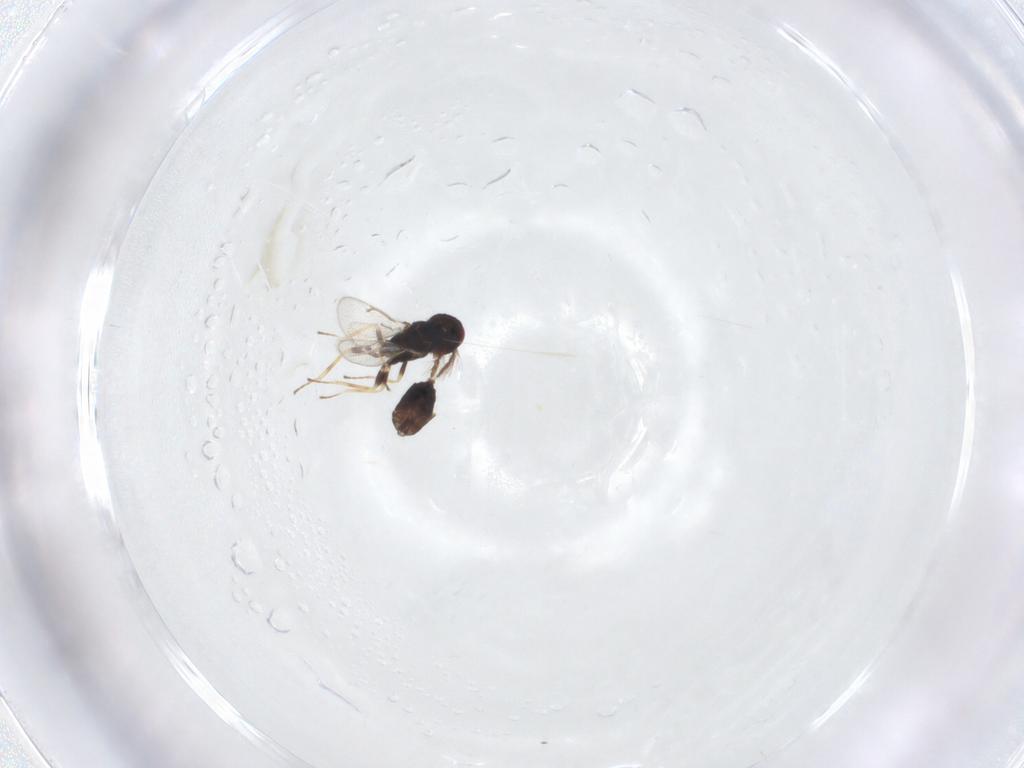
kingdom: Animalia
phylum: Arthropoda
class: Insecta
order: Hymenoptera
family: Eulophidae
